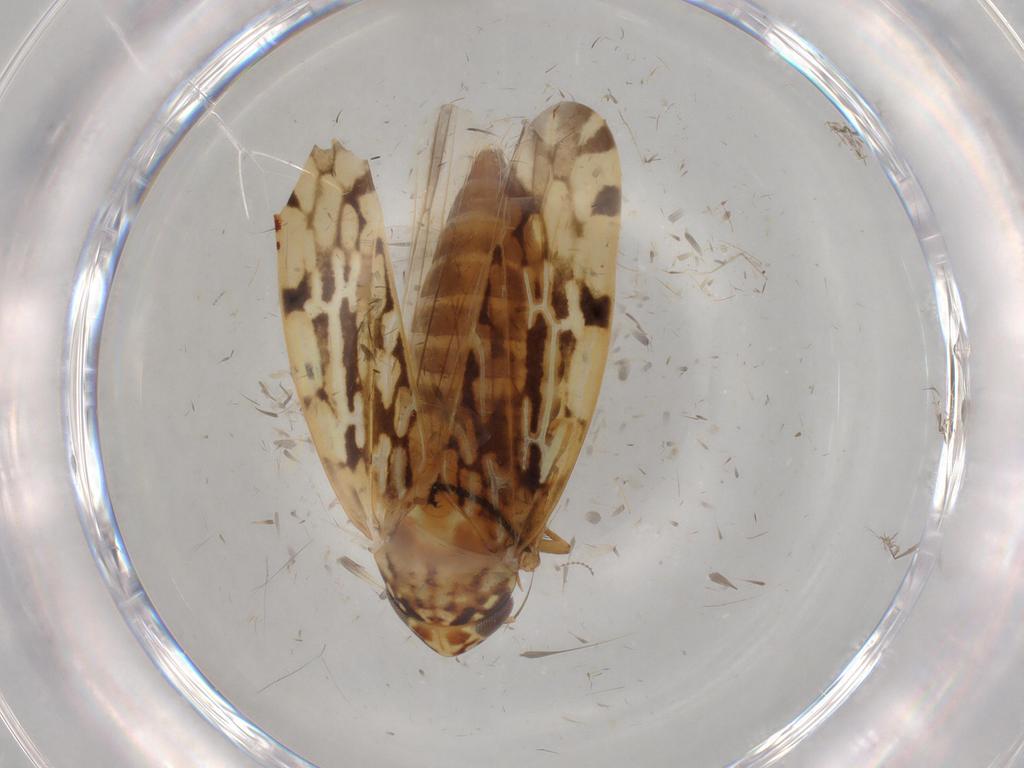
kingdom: Animalia
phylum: Arthropoda
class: Insecta
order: Hemiptera
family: Cicadellidae
